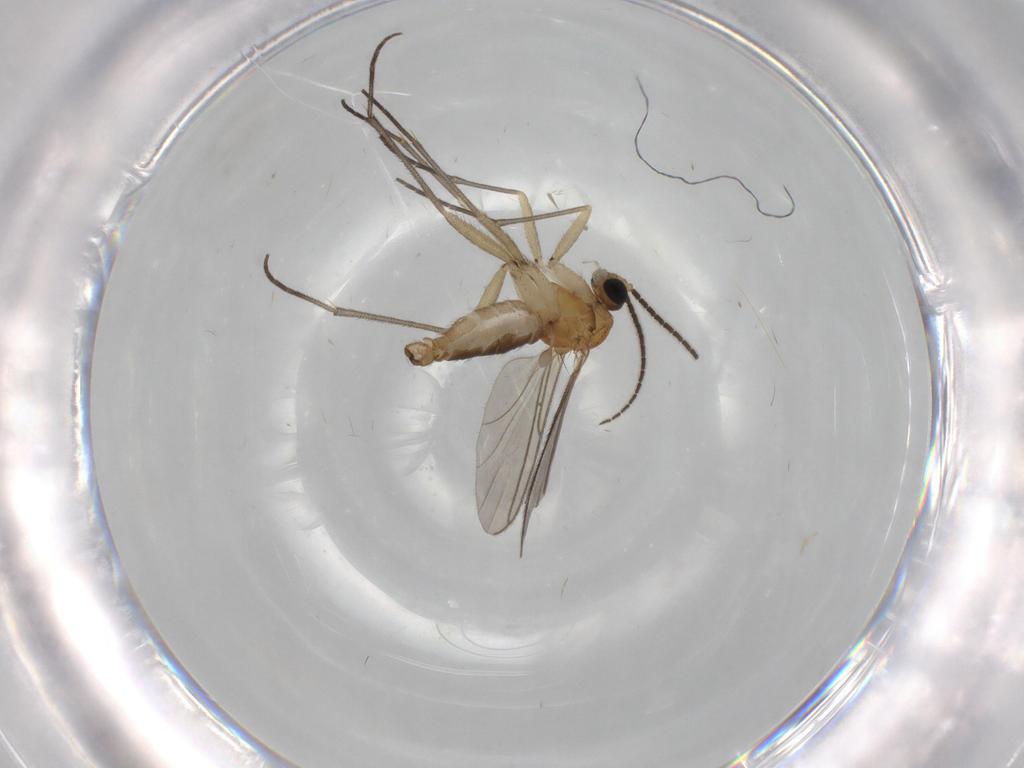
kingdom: Animalia
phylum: Arthropoda
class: Insecta
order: Diptera
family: Sciaridae
